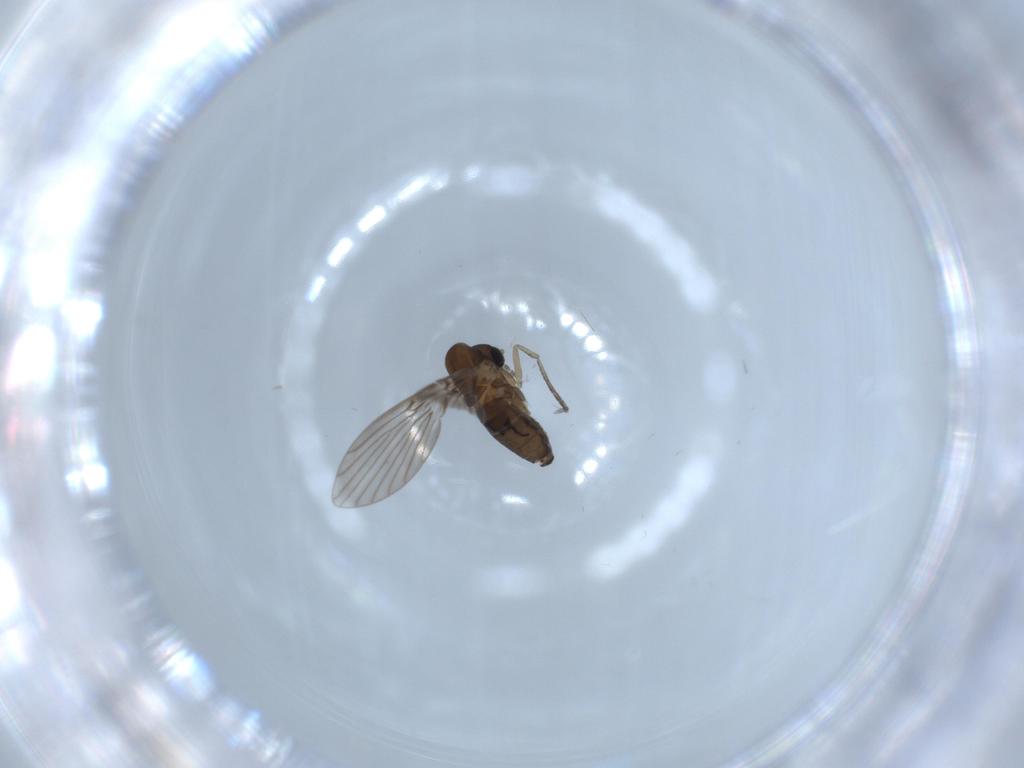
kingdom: Animalia
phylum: Arthropoda
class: Insecta
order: Diptera
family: Psychodidae
